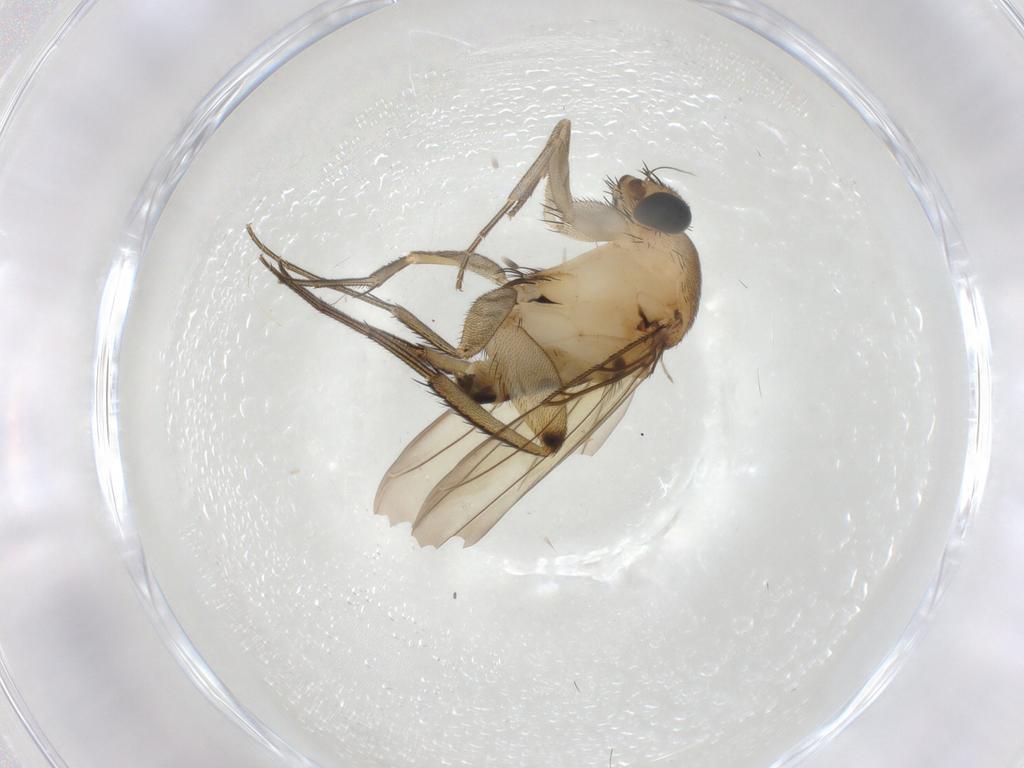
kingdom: Animalia
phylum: Arthropoda
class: Insecta
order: Diptera
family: Phoridae
